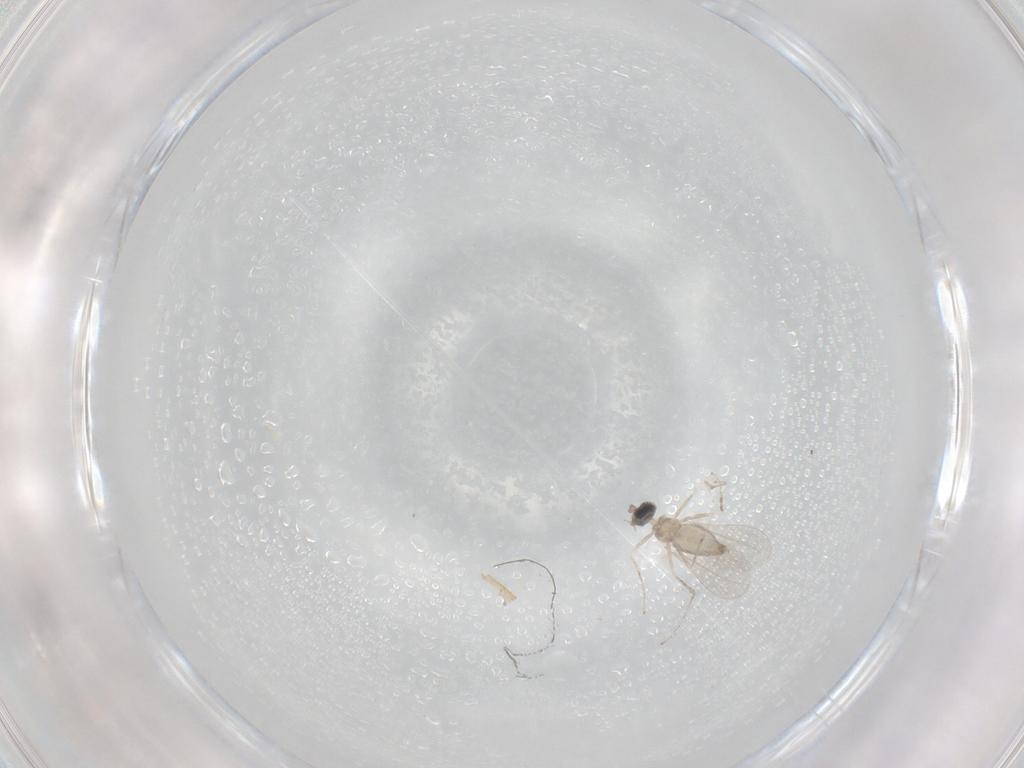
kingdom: Animalia
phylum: Arthropoda
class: Insecta
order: Diptera
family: Cecidomyiidae
